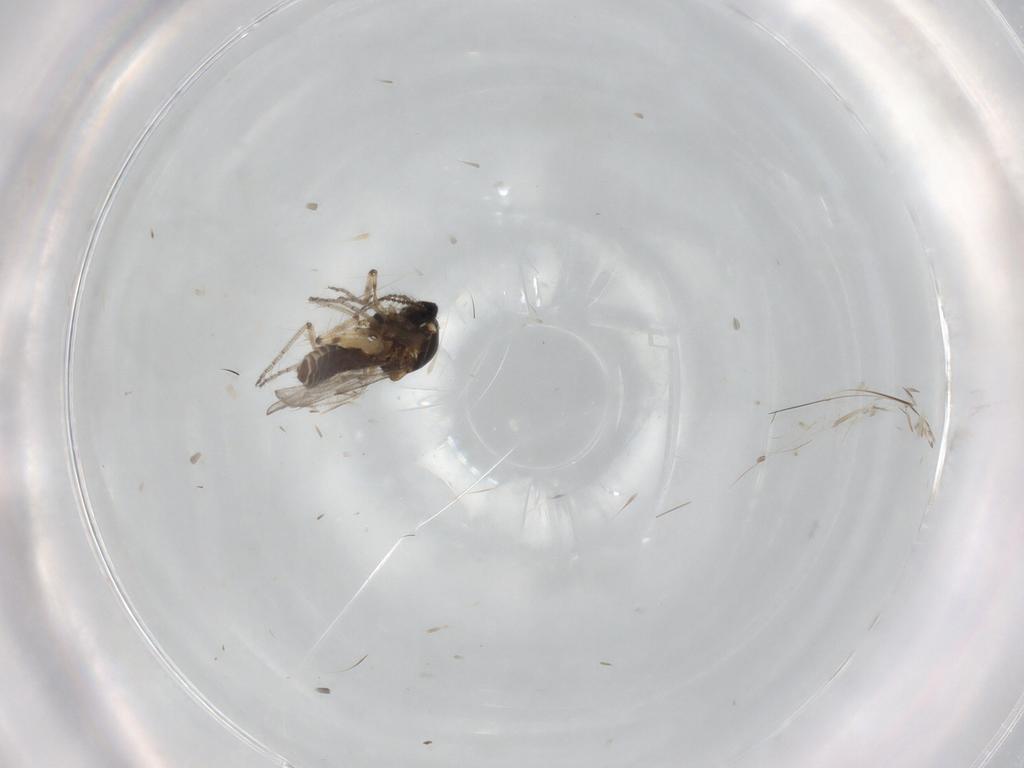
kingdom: Animalia
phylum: Arthropoda
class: Insecta
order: Diptera
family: Ceratopogonidae
